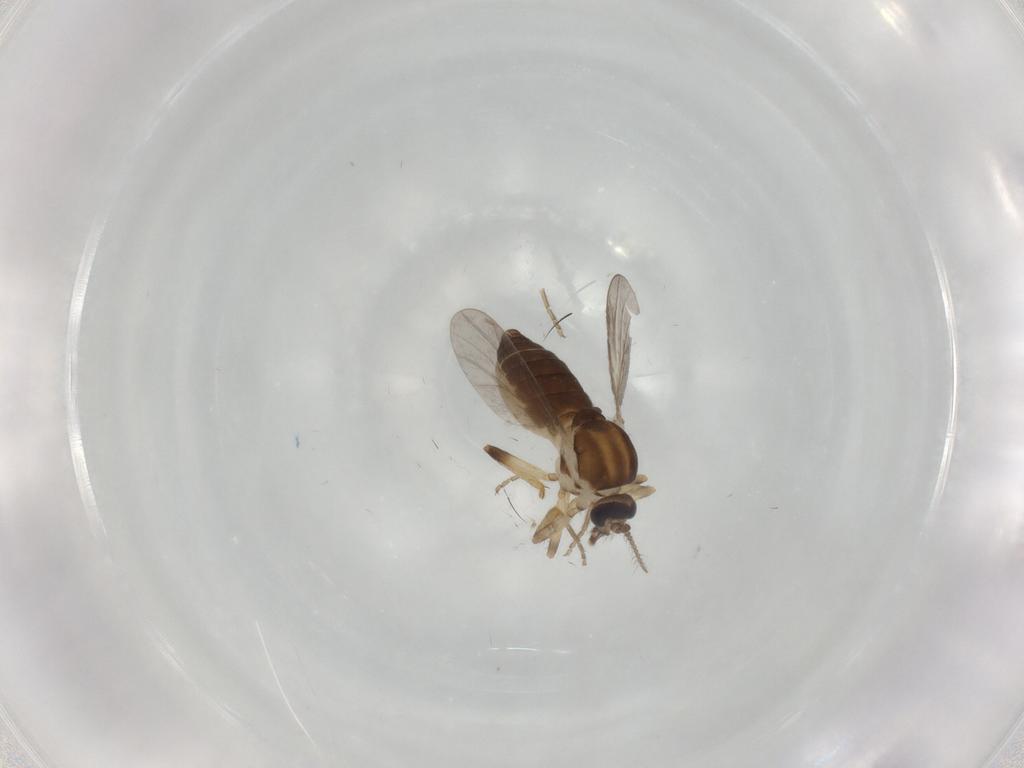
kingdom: Animalia
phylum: Arthropoda
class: Insecta
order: Diptera
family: Ceratopogonidae
